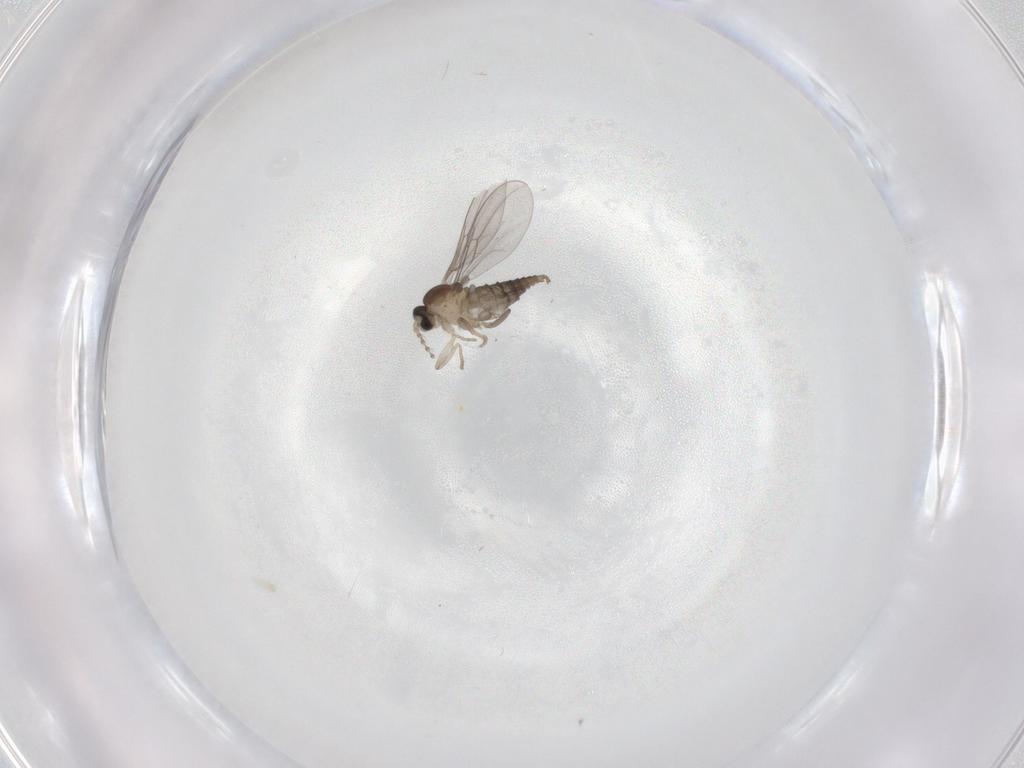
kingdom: Animalia
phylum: Arthropoda
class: Insecta
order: Diptera
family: Cecidomyiidae
